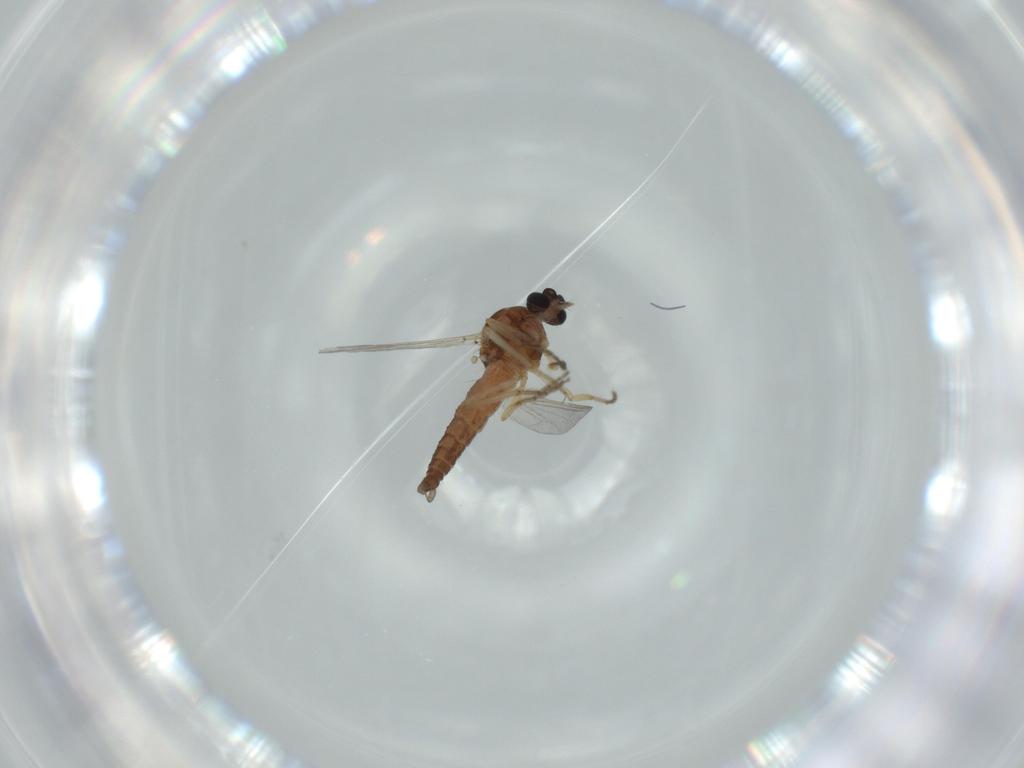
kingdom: Animalia
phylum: Arthropoda
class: Insecta
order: Diptera
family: Ceratopogonidae
